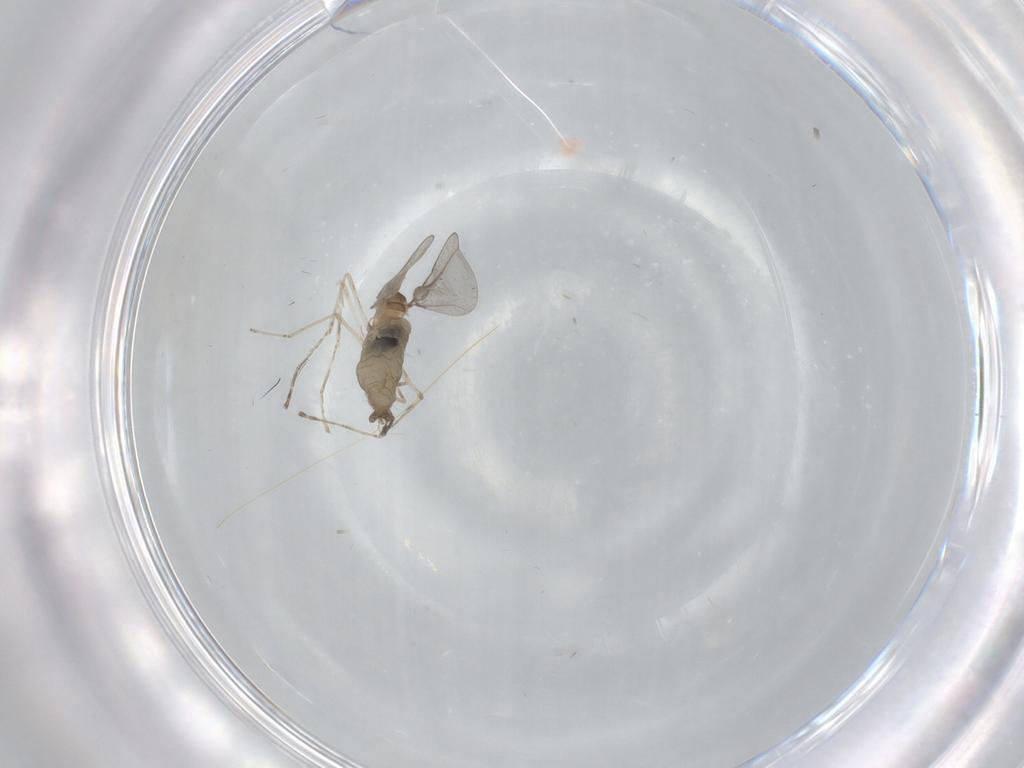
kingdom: Animalia
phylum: Arthropoda
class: Insecta
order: Diptera
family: Cecidomyiidae
